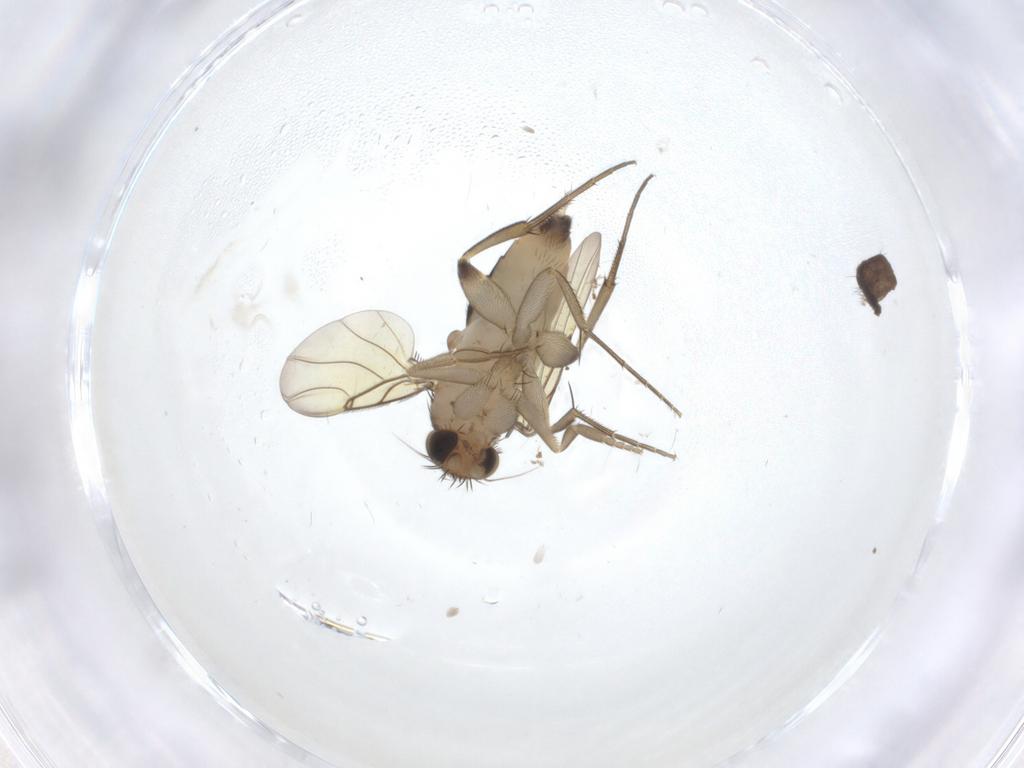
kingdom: Animalia
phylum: Arthropoda
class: Insecta
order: Diptera
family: Phoridae
